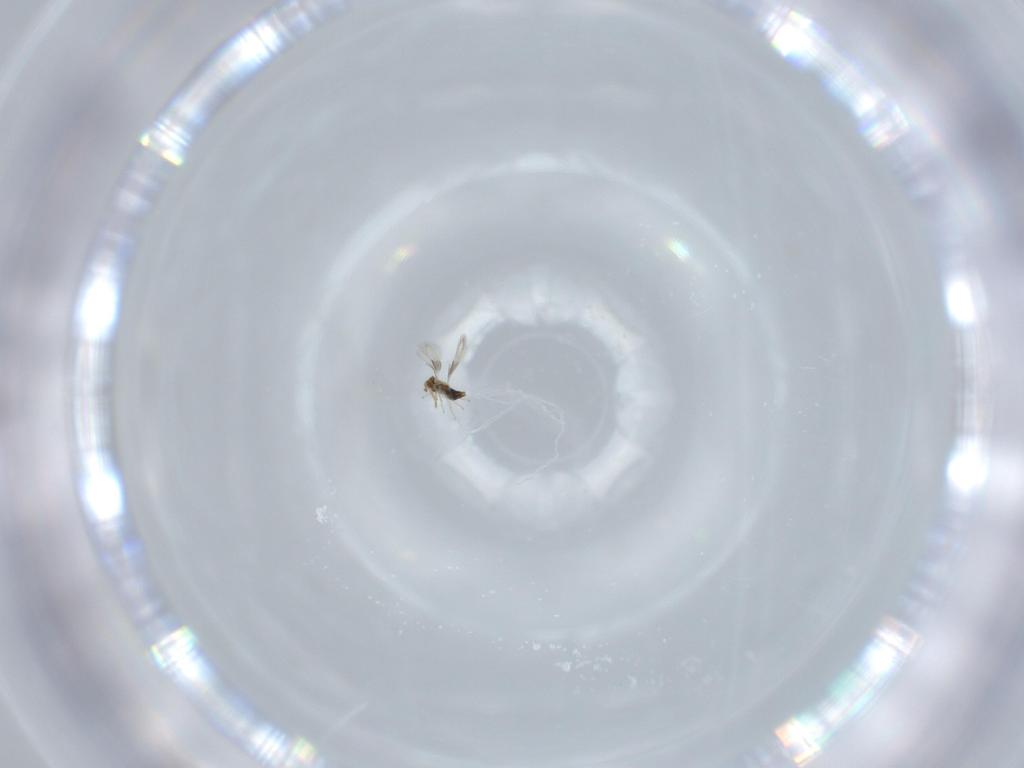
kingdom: Animalia
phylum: Arthropoda
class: Insecta
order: Hymenoptera
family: Aphelinidae
